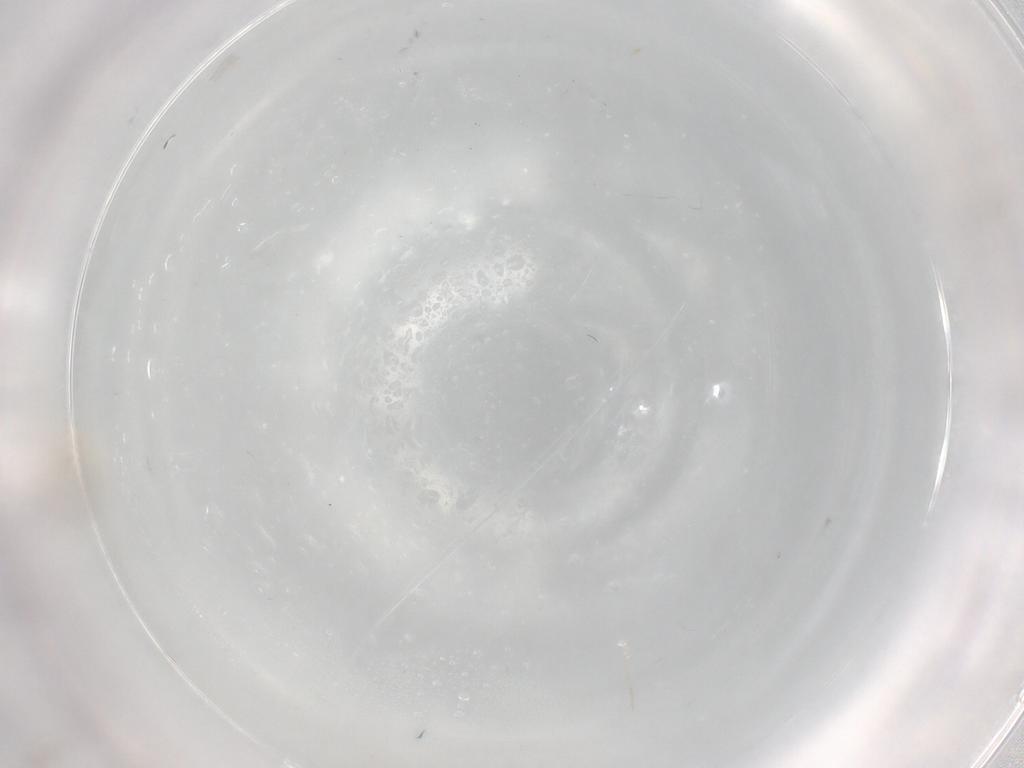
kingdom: Animalia
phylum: Arthropoda
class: Insecta
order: Diptera
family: Cecidomyiidae
